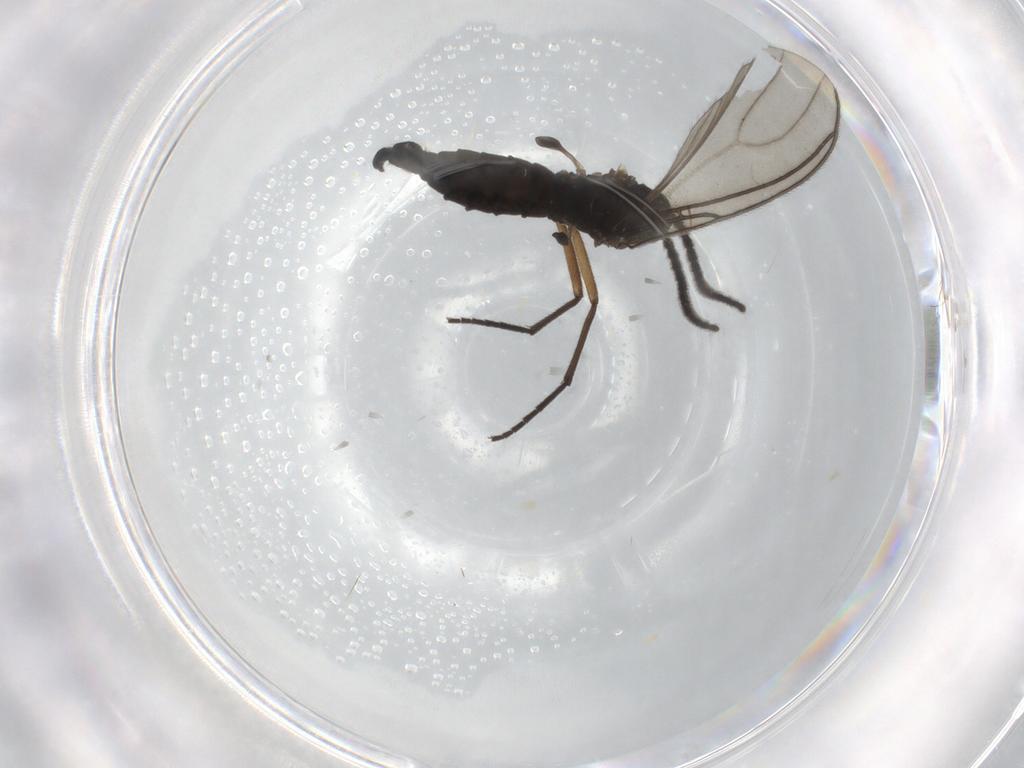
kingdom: Animalia
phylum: Arthropoda
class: Insecta
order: Diptera
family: Sciaridae
